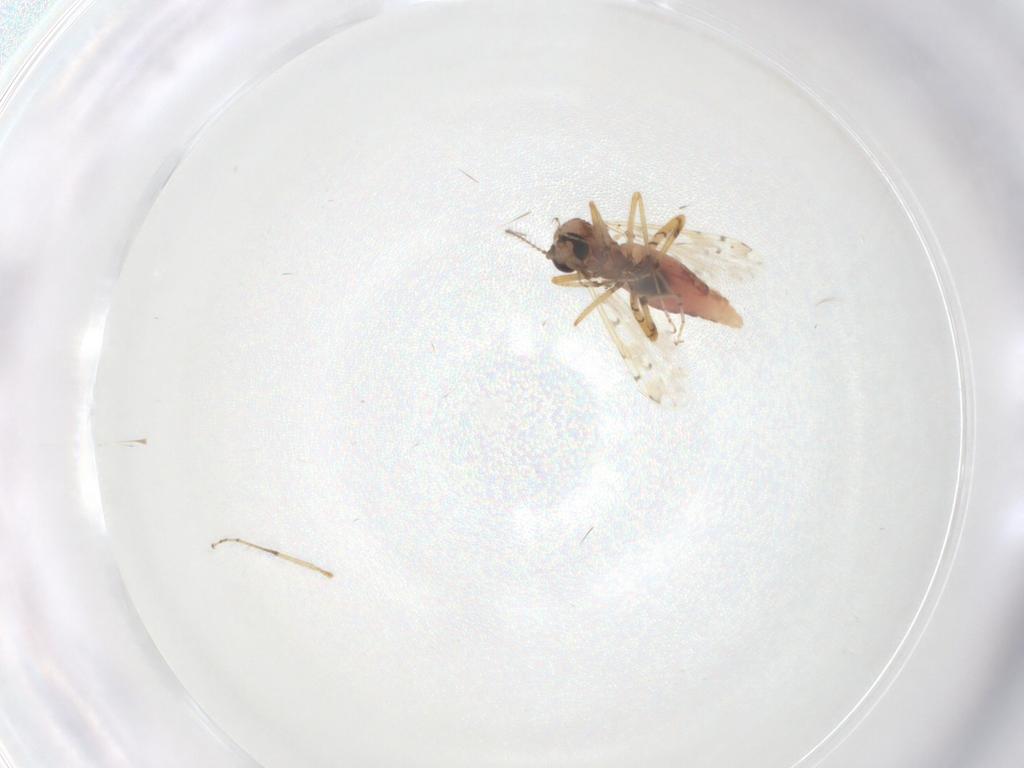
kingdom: Animalia
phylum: Arthropoda
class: Insecta
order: Diptera
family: Ceratopogonidae
